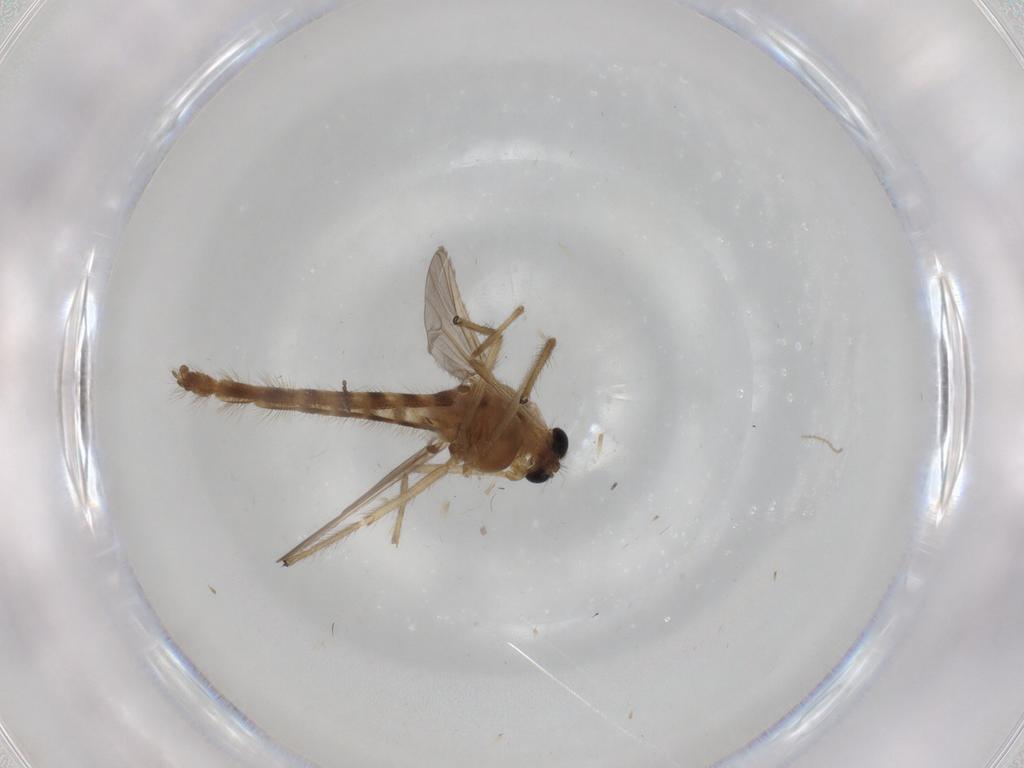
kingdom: Animalia
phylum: Arthropoda
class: Insecta
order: Diptera
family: Chironomidae
